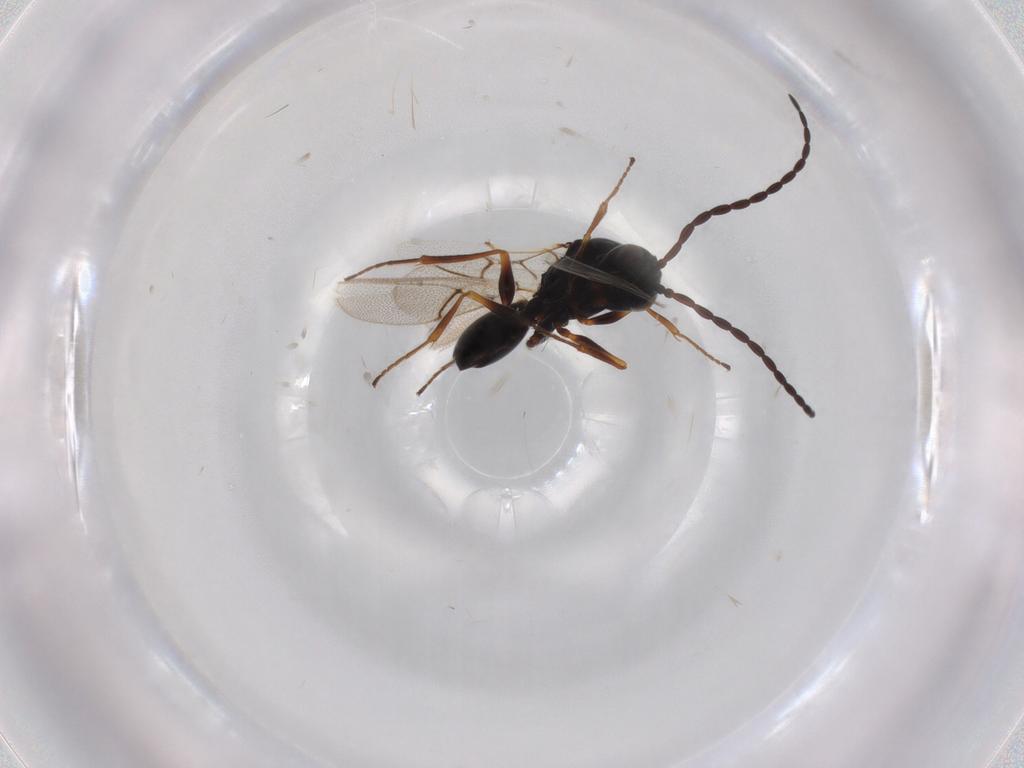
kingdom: Animalia
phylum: Arthropoda
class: Insecta
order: Hymenoptera
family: Figitidae
